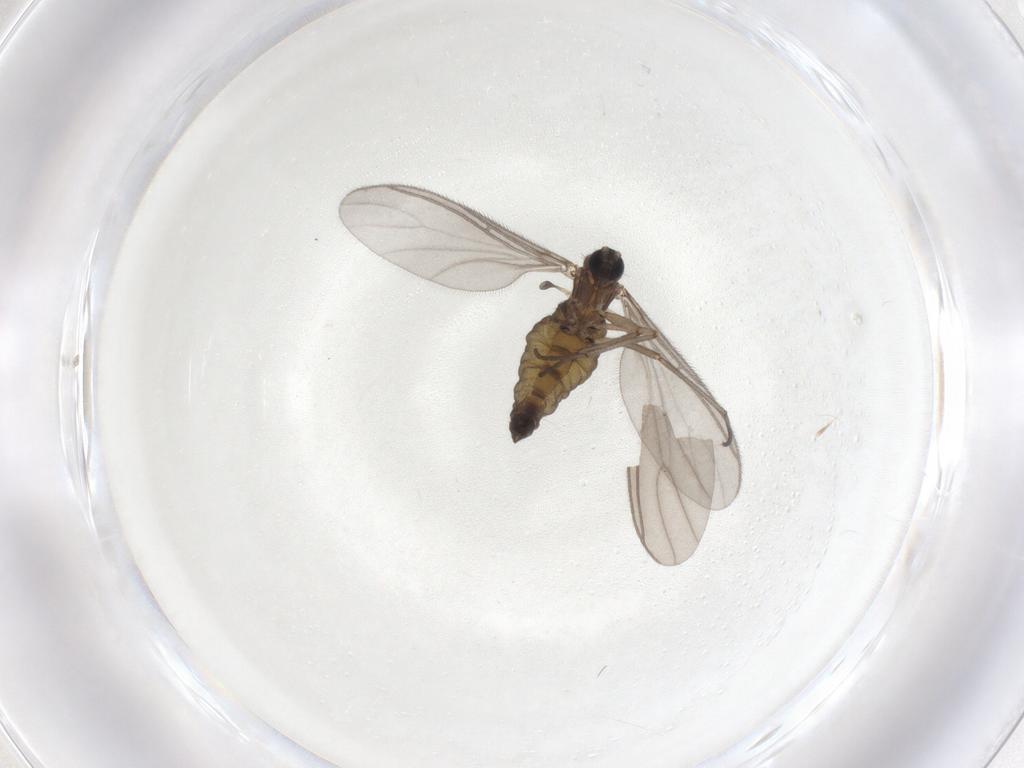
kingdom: Animalia
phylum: Arthropoda
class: Insecta
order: Diptera
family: Sciaridae
